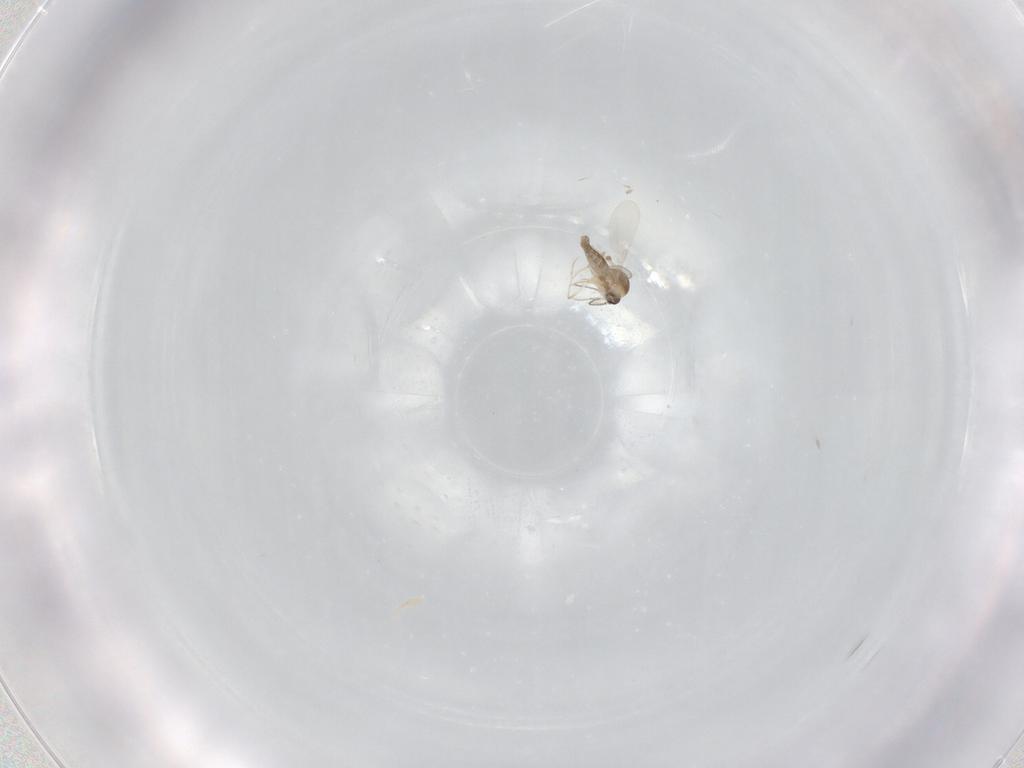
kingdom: Animalia
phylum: Arthropoda
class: Insecta
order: Diptera
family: Ceratopogonidae
